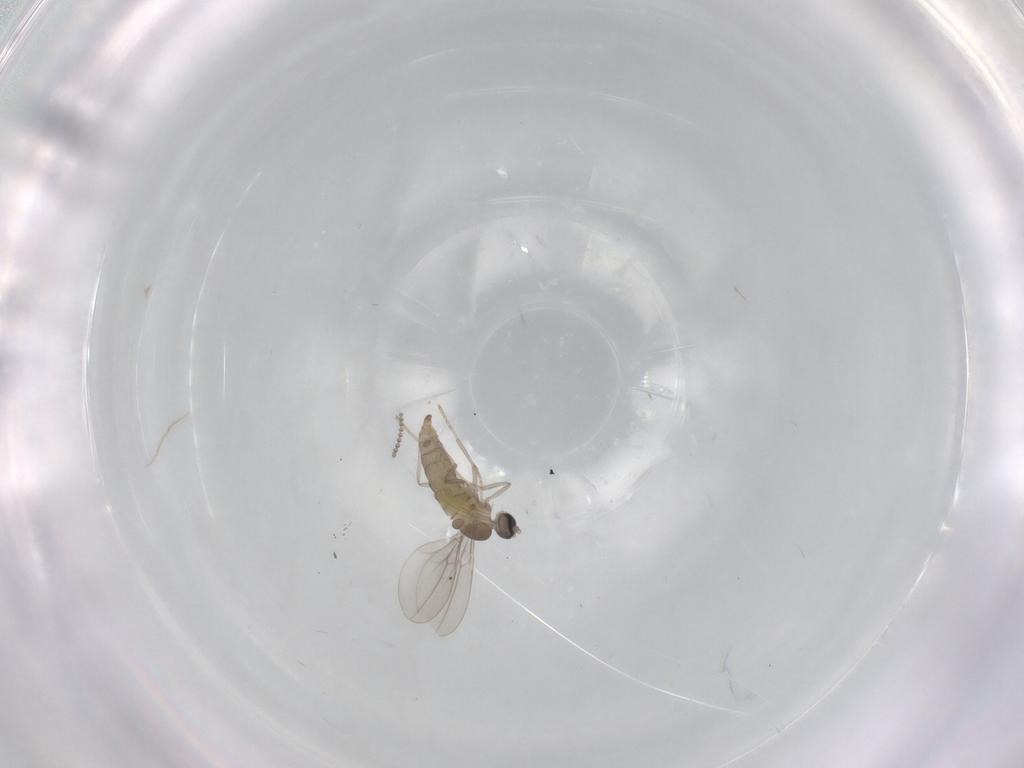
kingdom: Animalia
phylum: Arthropoda
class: Insecta
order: Diptera
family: Cecidomyiidae
